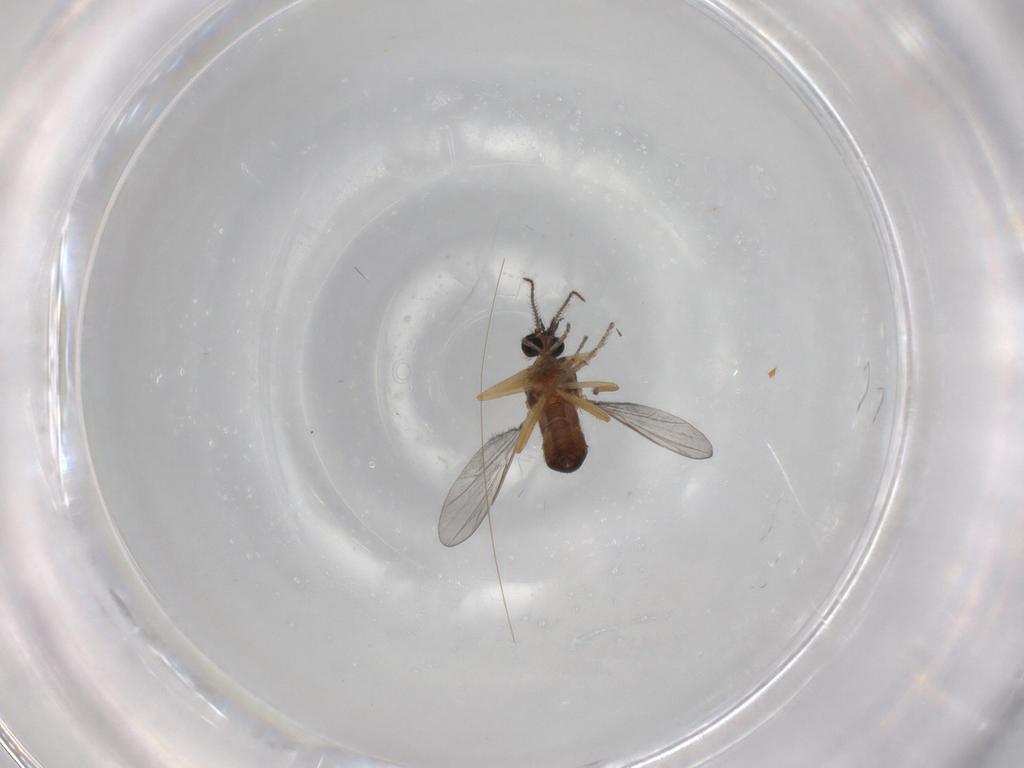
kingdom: Animalia
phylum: Arthropoda
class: Insecta
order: Diptera
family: Ceratopogonidae
